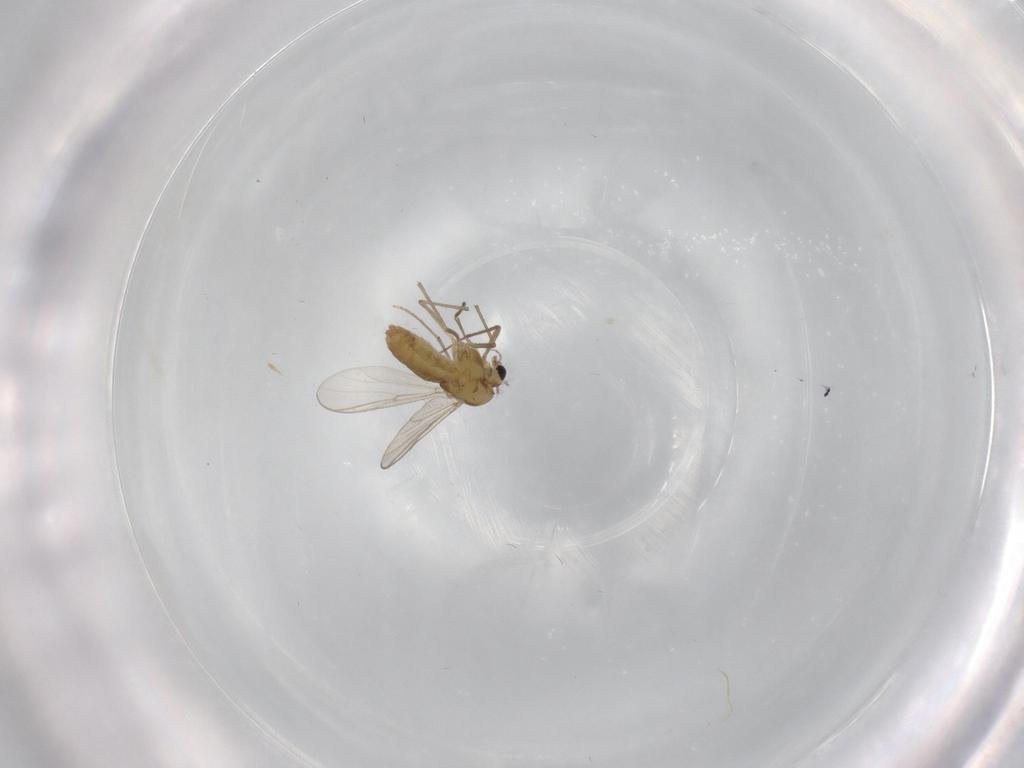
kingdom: Animalia
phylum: Arthropoda
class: Insecta
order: Diptera
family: Chironomidae
